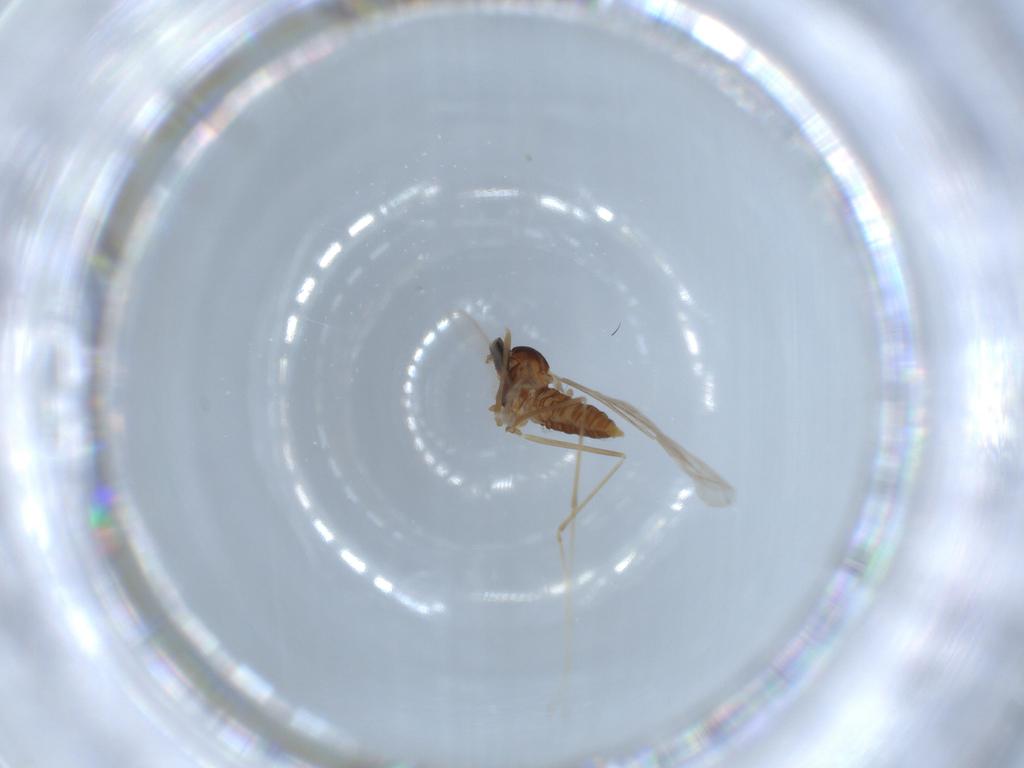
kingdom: Animalia
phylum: Arthropoda
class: Insecta
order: Diptera
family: Cecidomyiidae
